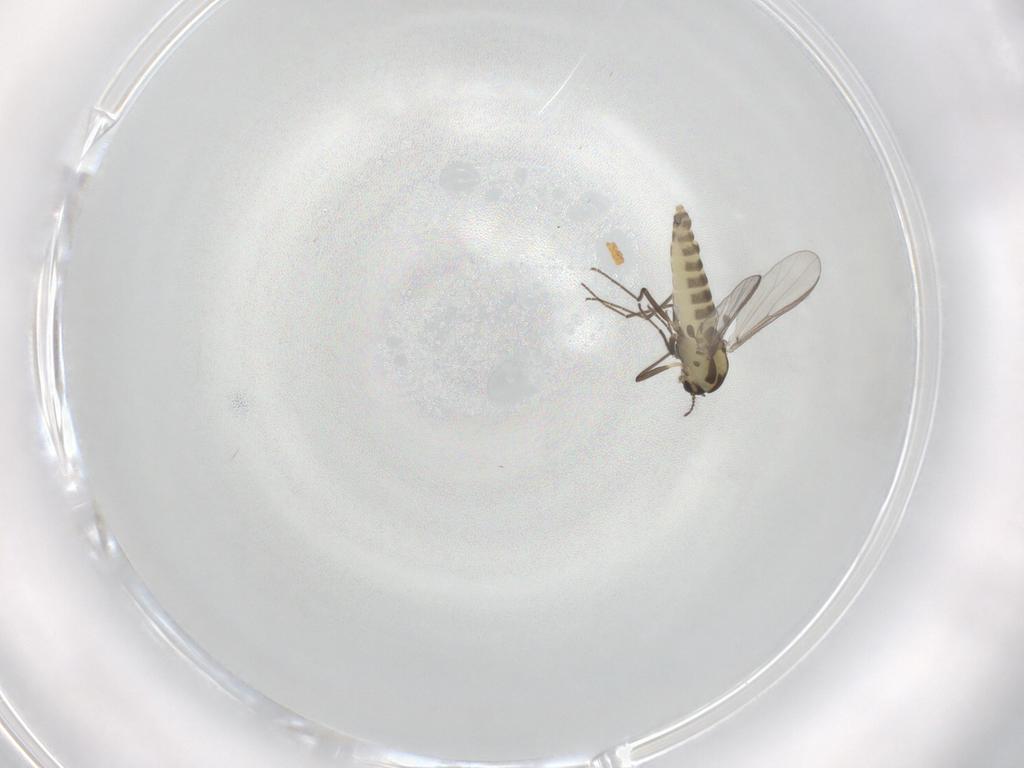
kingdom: Animalia
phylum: Arthropoda
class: Insecta
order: Diptera
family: Chironomidae
